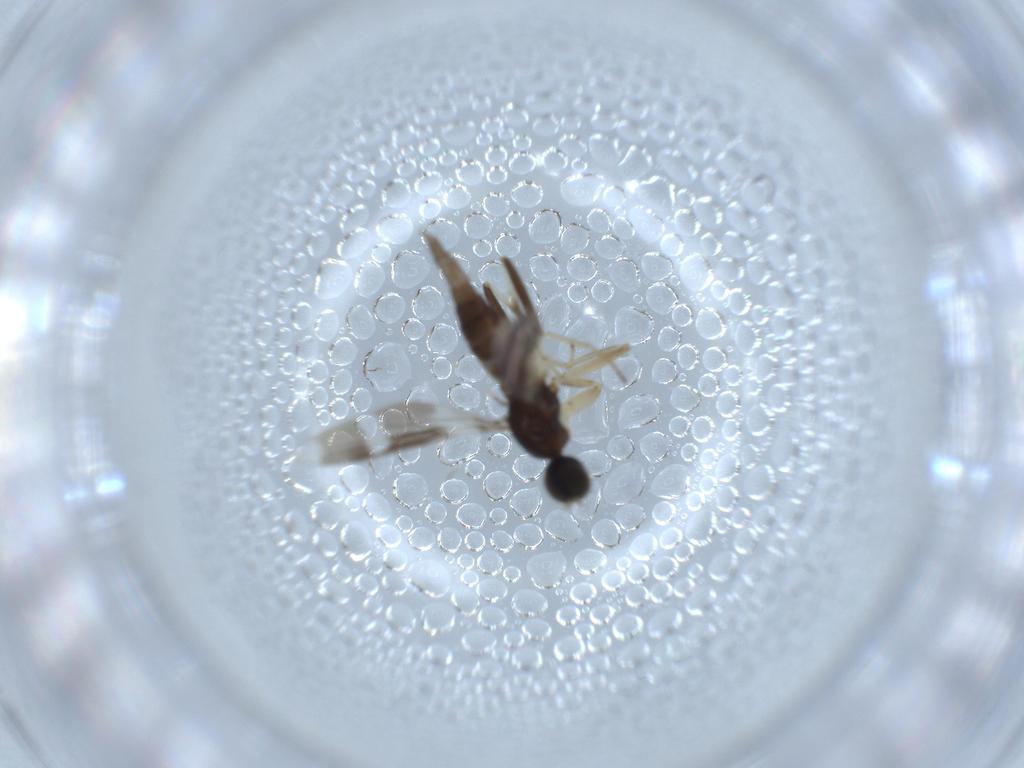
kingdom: Animalia
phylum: Arthropoda
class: Insecta
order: Diptera
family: Hybotidae
